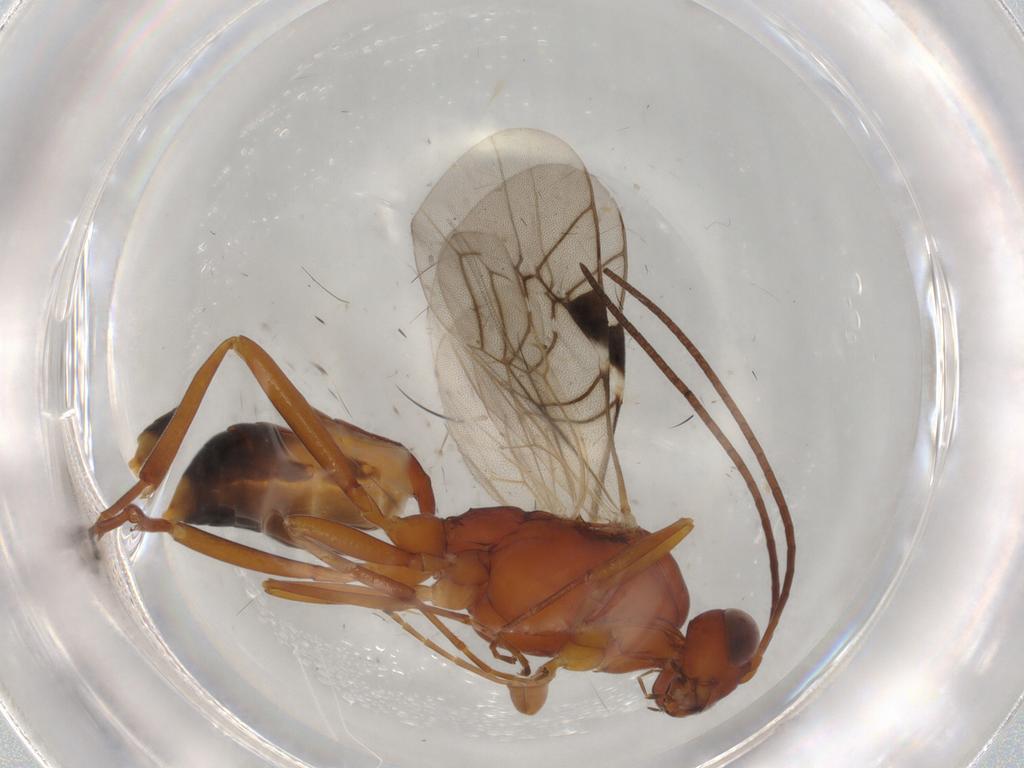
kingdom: Animalia
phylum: Arthropoda
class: Insecta
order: Hymenoptera
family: Ichneumonidae
